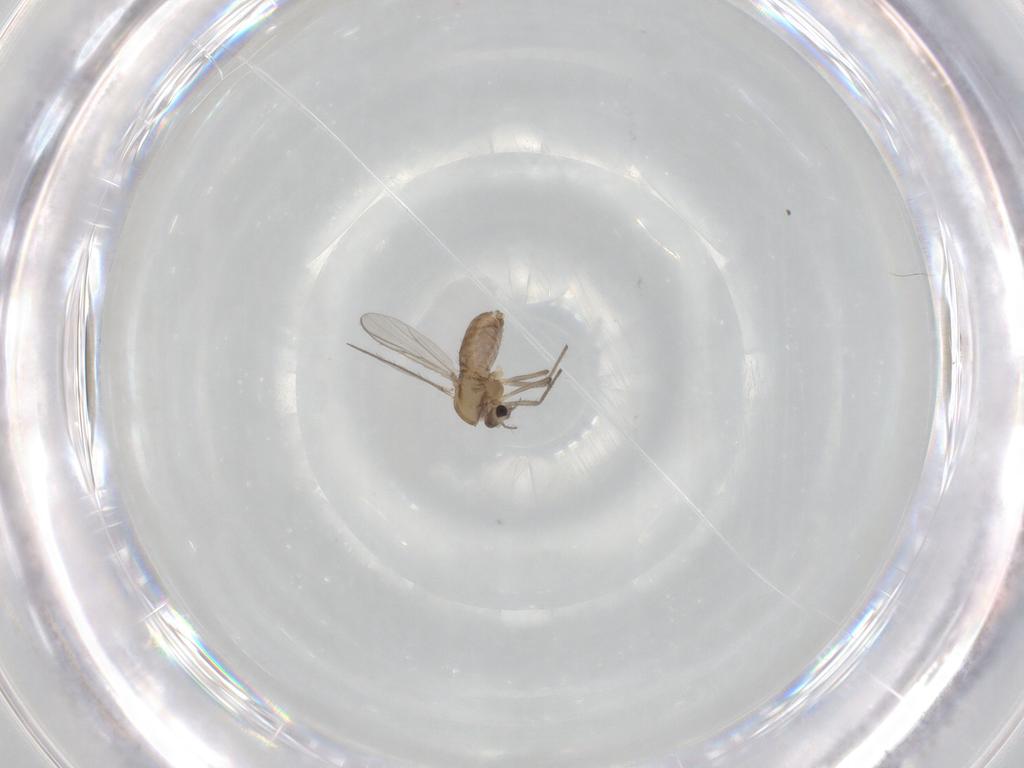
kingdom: Animalia
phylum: Arthropoda
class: Insecta
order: Diptera
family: Chironomidae
